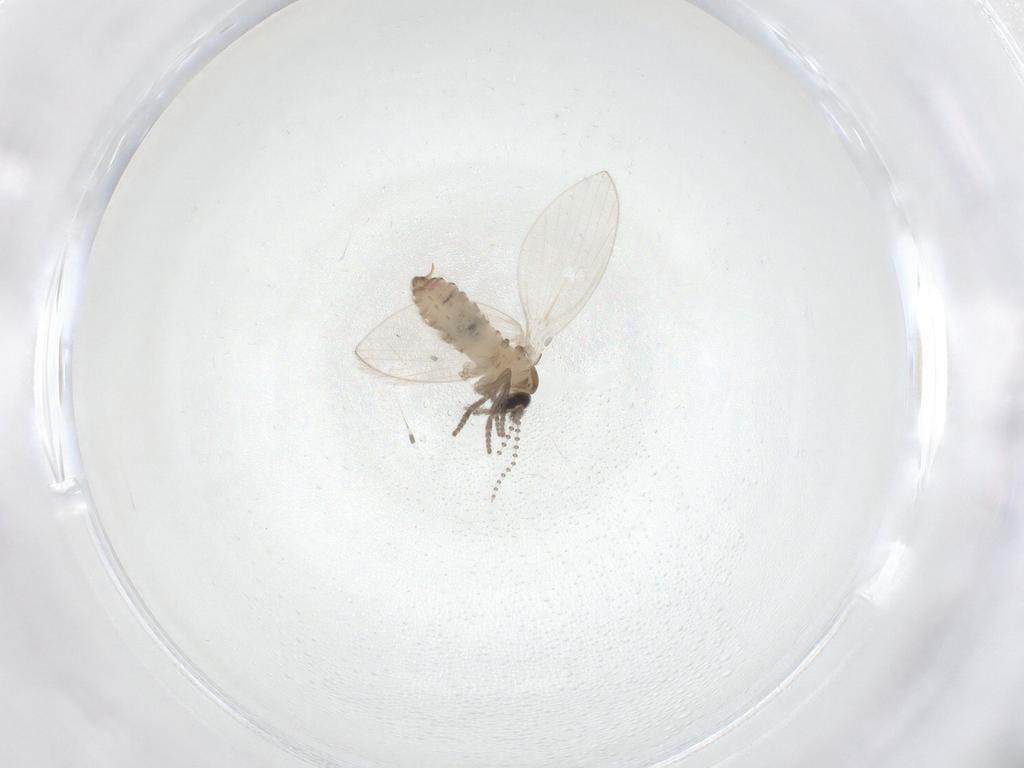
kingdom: Animalia
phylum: Arthropoda
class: Insecta
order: Diptera
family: Psychodidae
